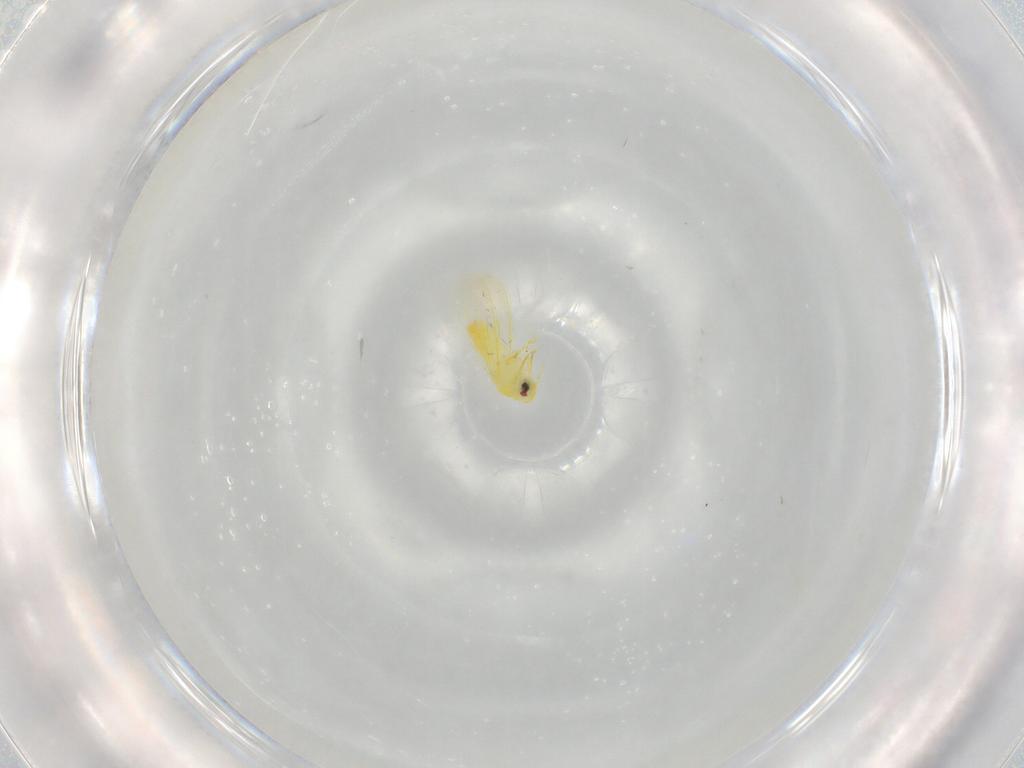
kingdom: Animalia
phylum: Arthropoda
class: Insecta
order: Hemiptera
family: Aleyrodidae
